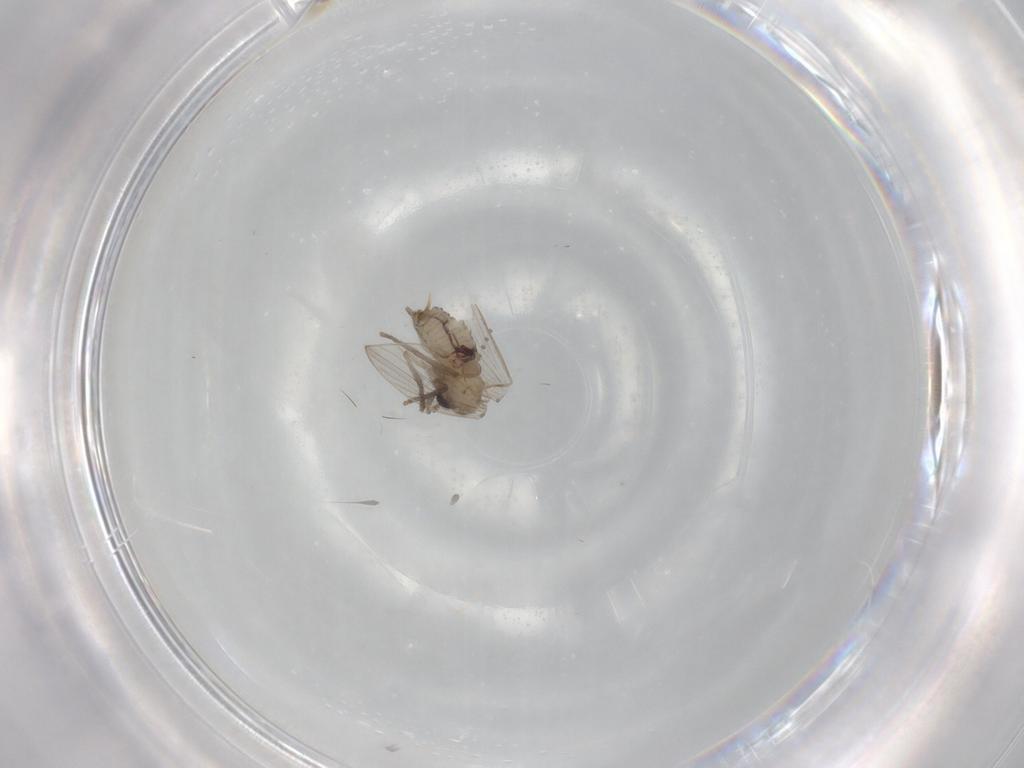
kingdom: Animalia
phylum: Arthropoda
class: Insecta
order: Diptera
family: Psychodidae
